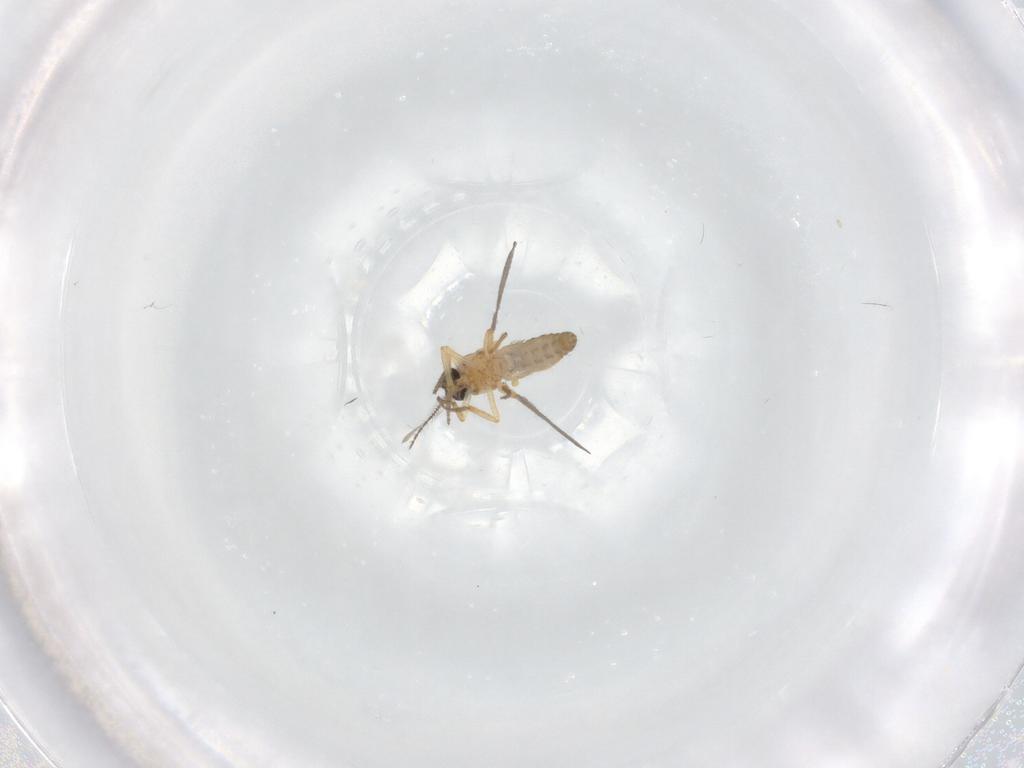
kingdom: Animalia
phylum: Arthropoda
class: Insecta
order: Diptera
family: Ceratopogonidae
